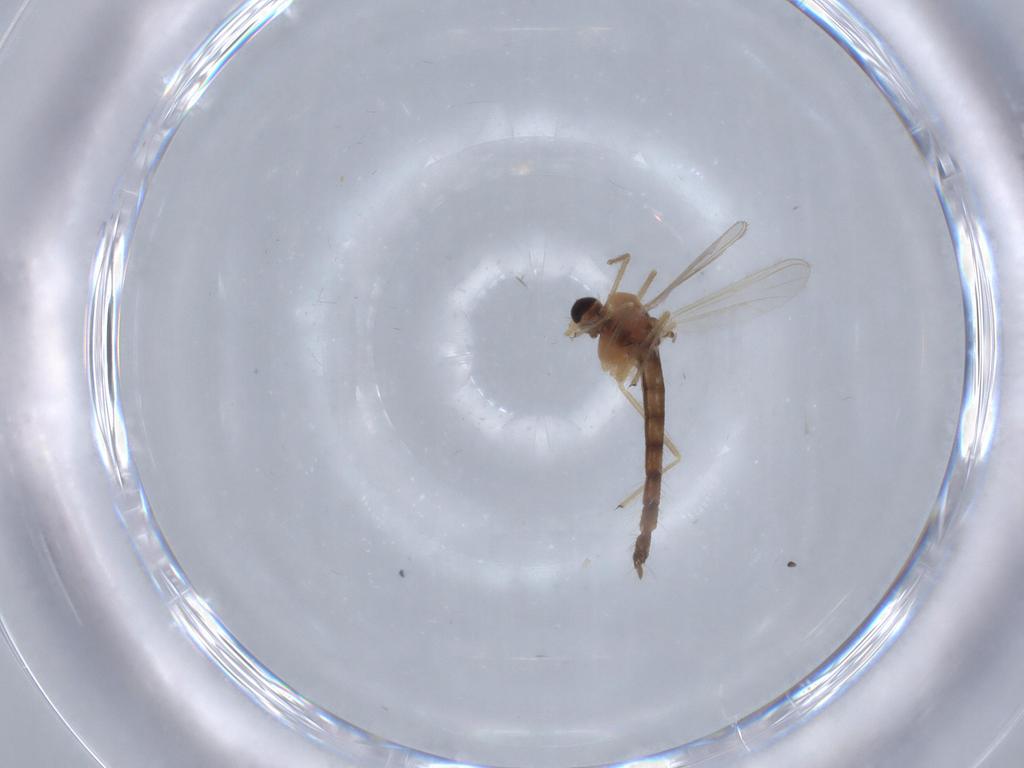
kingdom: Animalia
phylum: Arthropoda
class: Insecta
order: Diptera
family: Chironomidae
